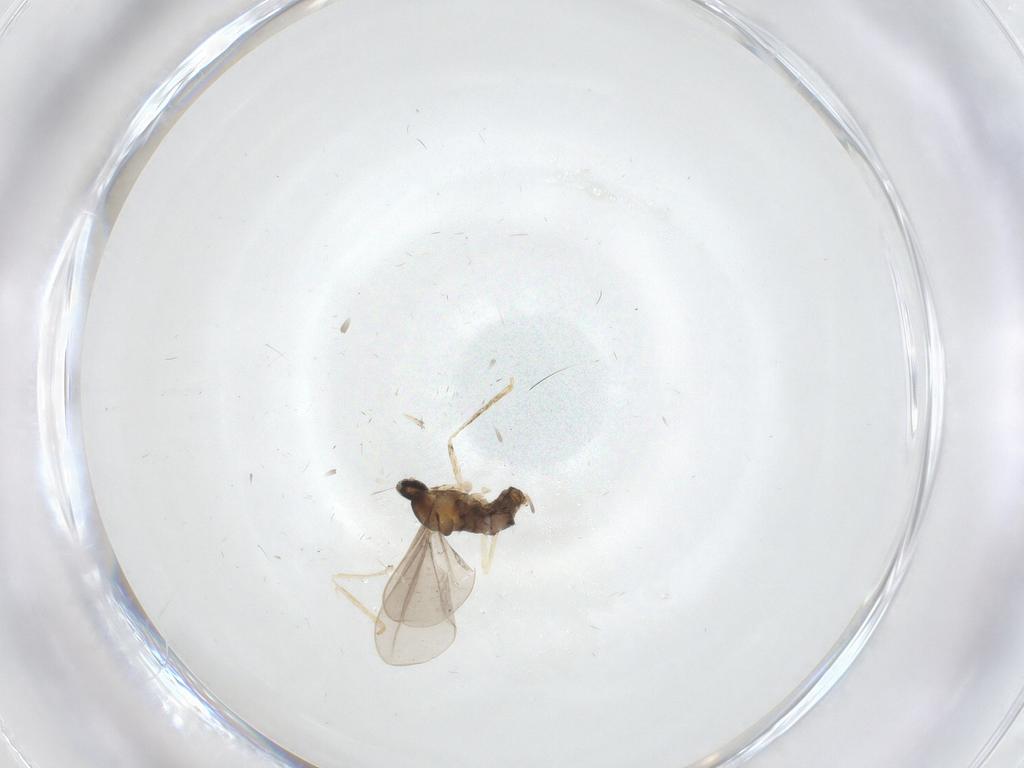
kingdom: Animalia
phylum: Arthropoda
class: Insecta
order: Diptera
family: Cecidomyiidae
